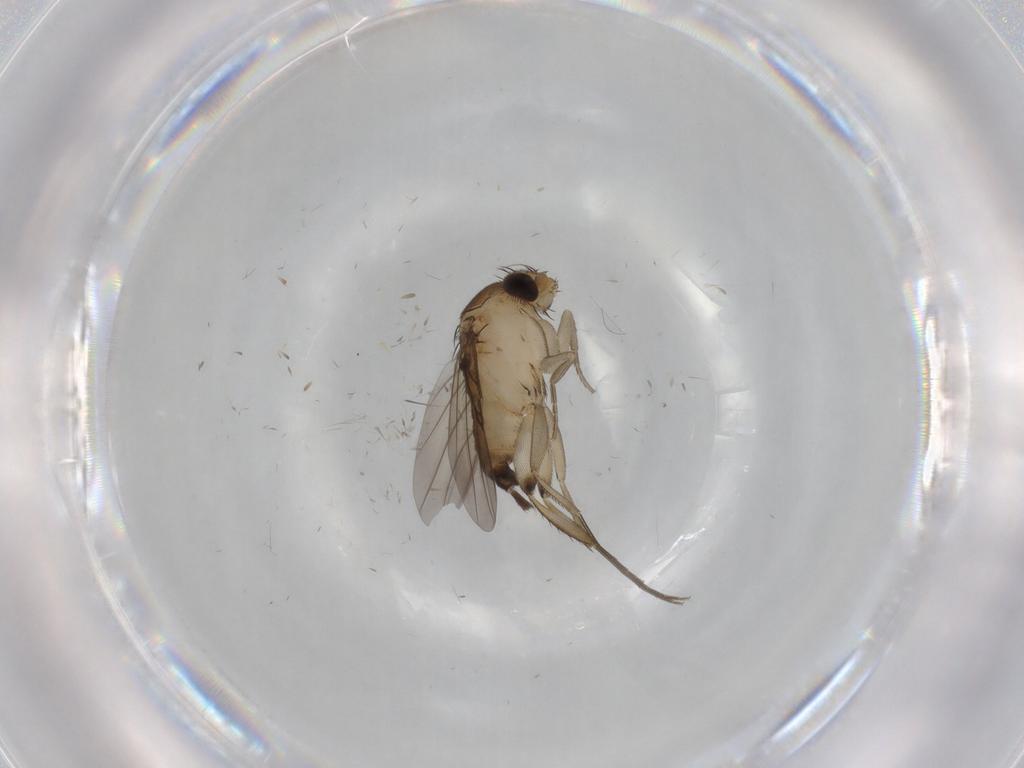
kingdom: Animalia
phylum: Arthropoda
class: Insecta
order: Diptera
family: Phoridae
